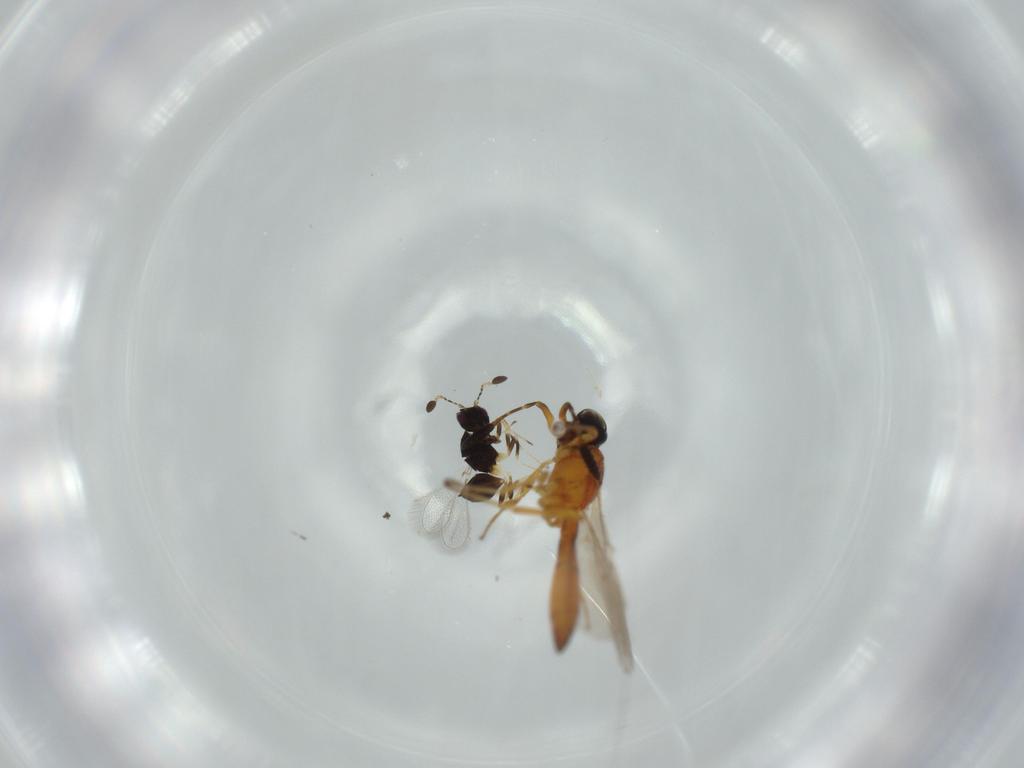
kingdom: Animalia
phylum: Arthropoda
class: Insecta
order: Hymenoptera
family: Scelionidae
